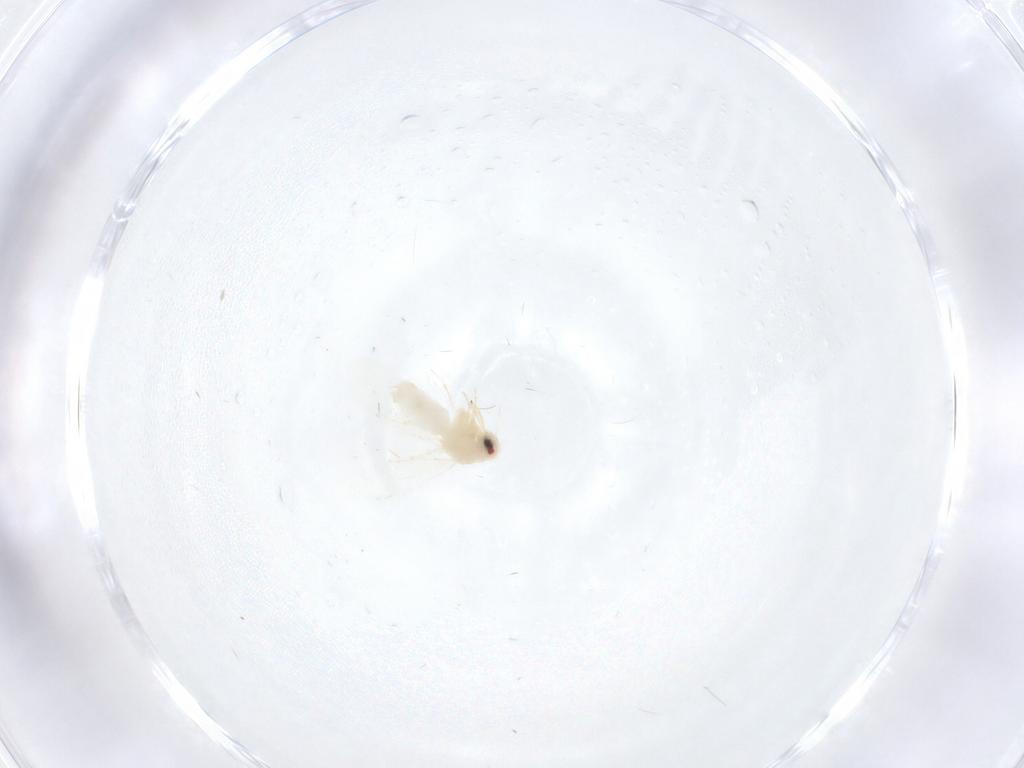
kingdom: Animalia
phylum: Arthropoda
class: Insecta
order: Hemiptera
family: Aleyrodidae
